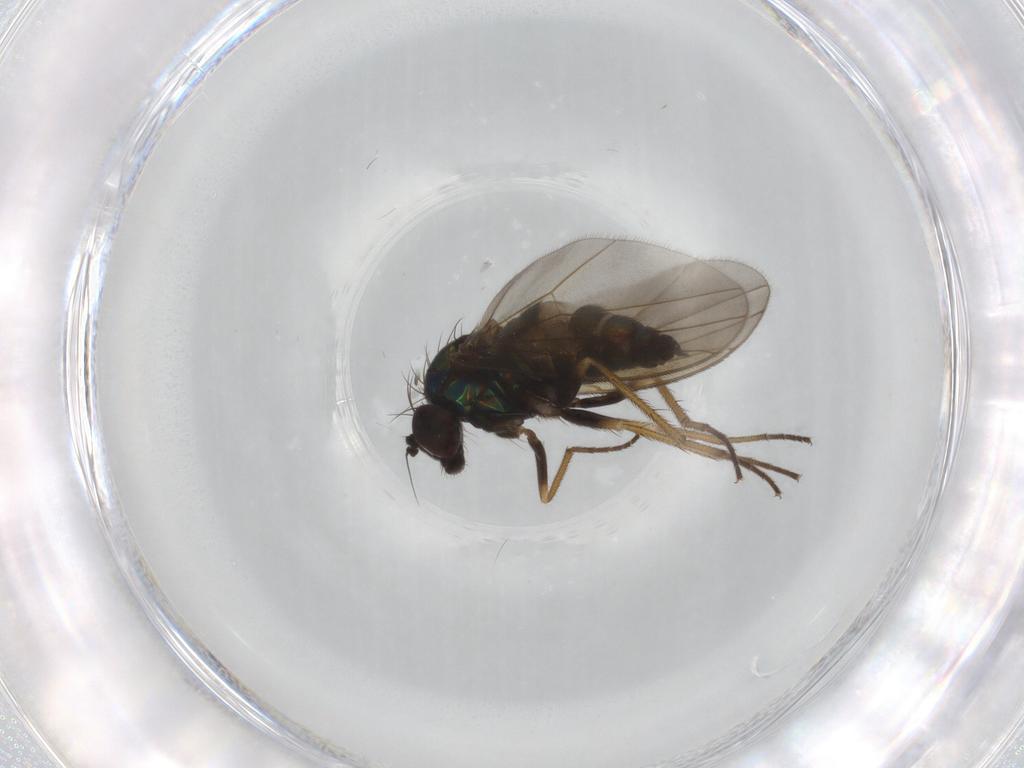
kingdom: Animalia
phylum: Arthropoda
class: Insecta
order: Diptera
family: Dolichopodidae
